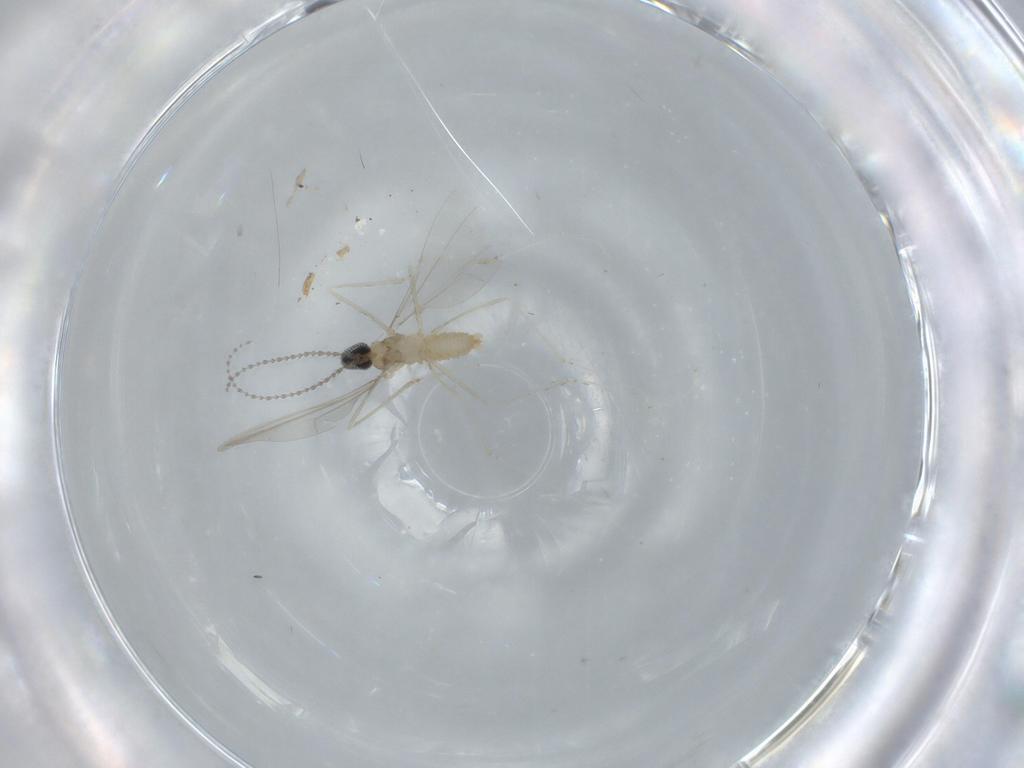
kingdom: Animalia
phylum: Arthropoda
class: Insecta
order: Diptera
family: Cecidomyiidae
